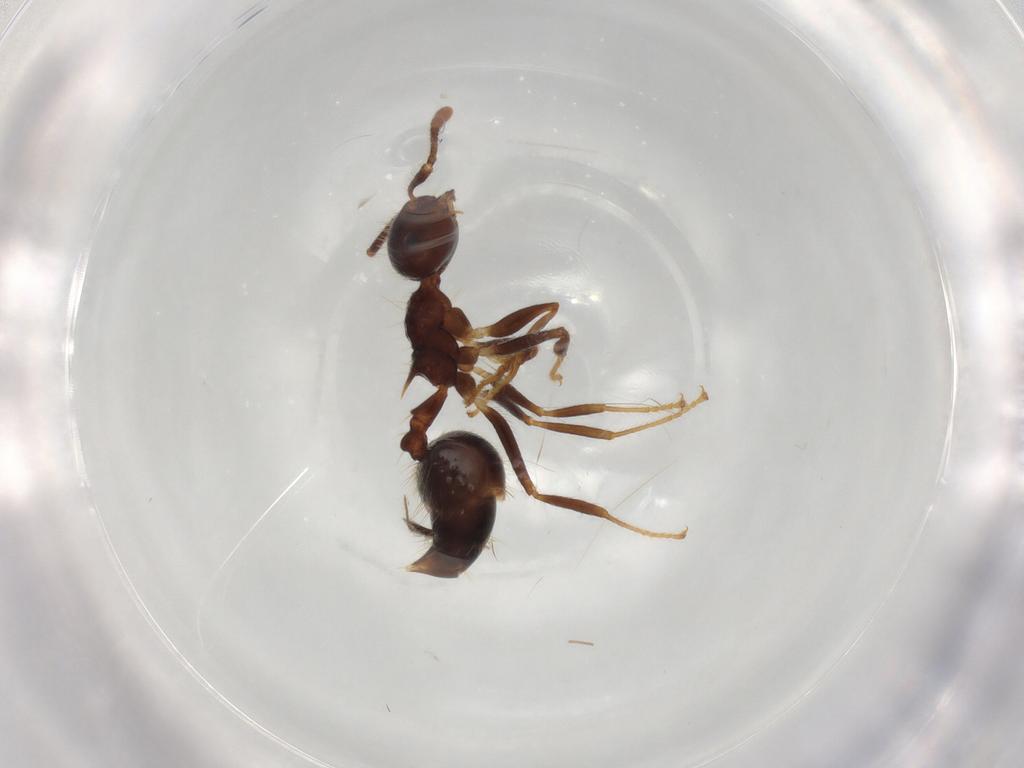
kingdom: Animalia
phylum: Arthropoda
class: Insecta
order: Hymenoptera
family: Formicidae
